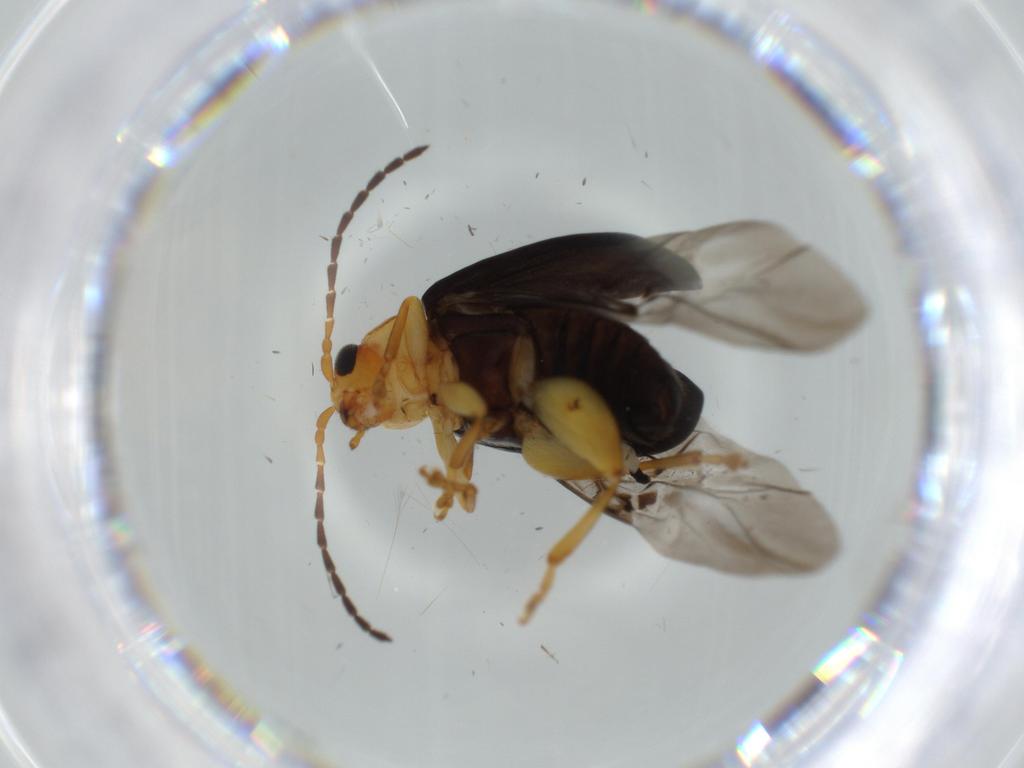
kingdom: Animalia
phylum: Arthropoda
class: Insecta
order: Coleoptera
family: Chrysomelidae
